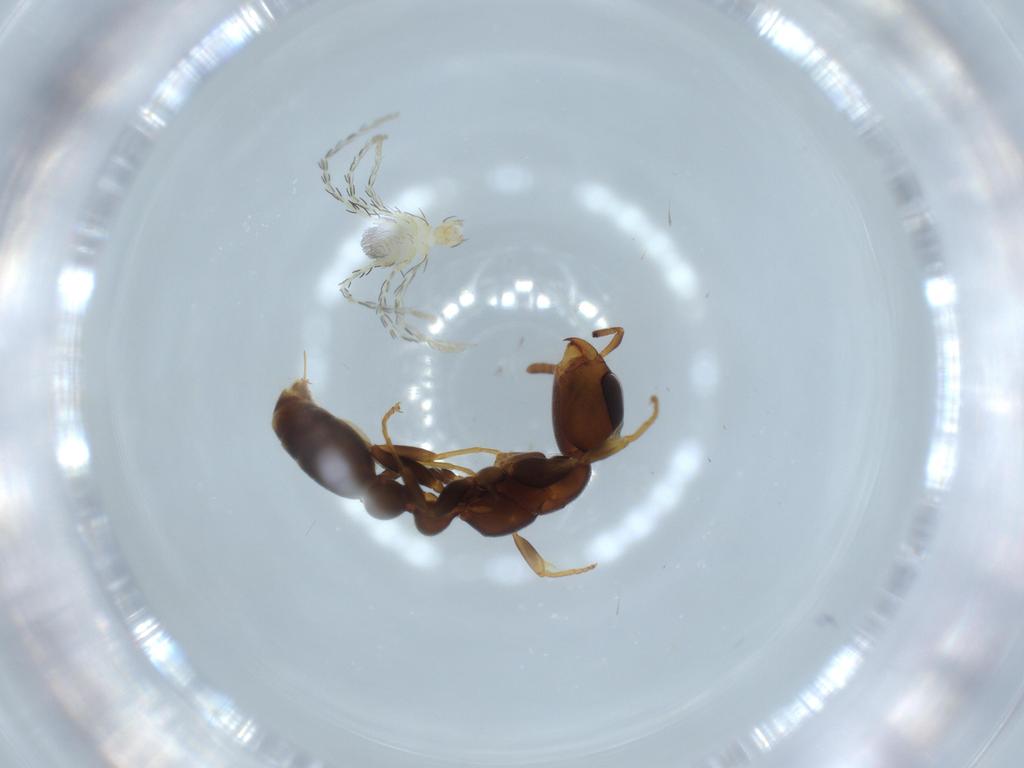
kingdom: Animalia
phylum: Arthropoda
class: Arachnida
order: Trombidiformes
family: Erythraeidae
